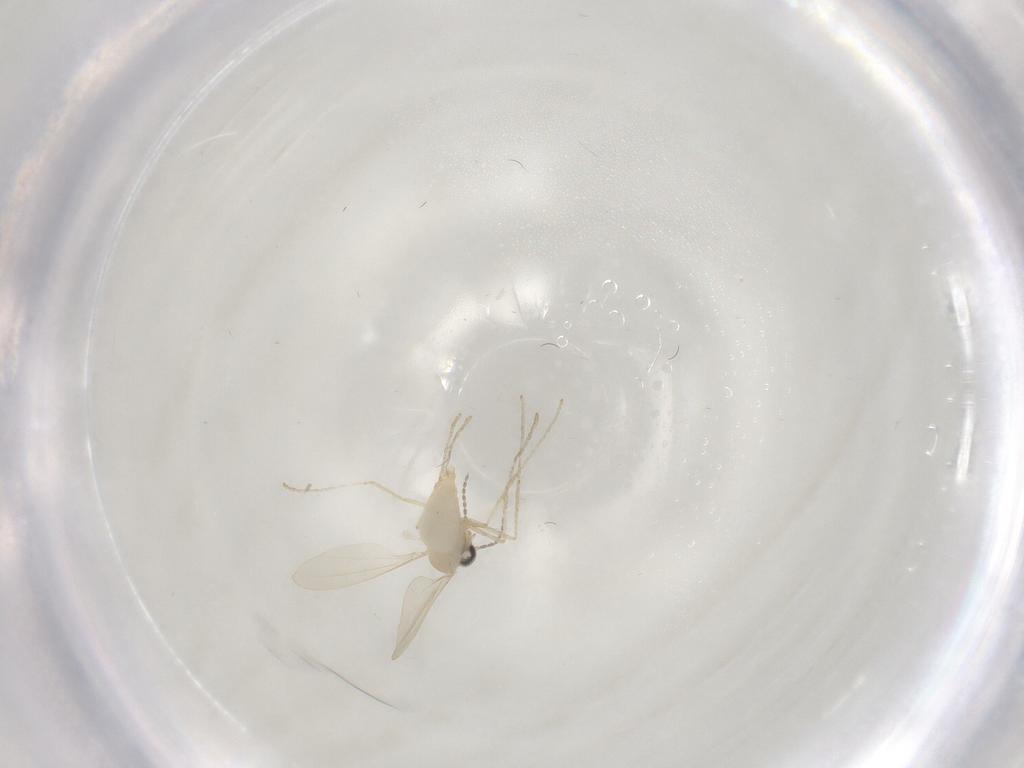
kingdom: Animalia
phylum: Arthropoda
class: Insecta
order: Diptera
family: Cecidomyiidae
